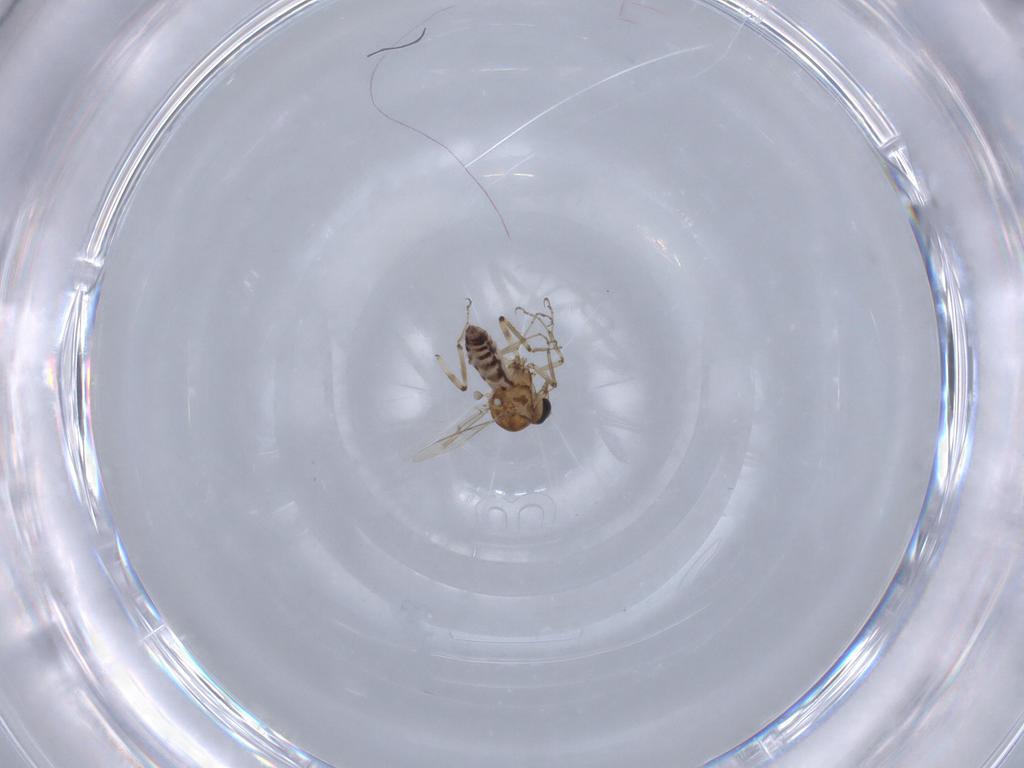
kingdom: Animalia
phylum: Arthropoda
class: Insecta
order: Diptera
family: Ceratopogonidae
